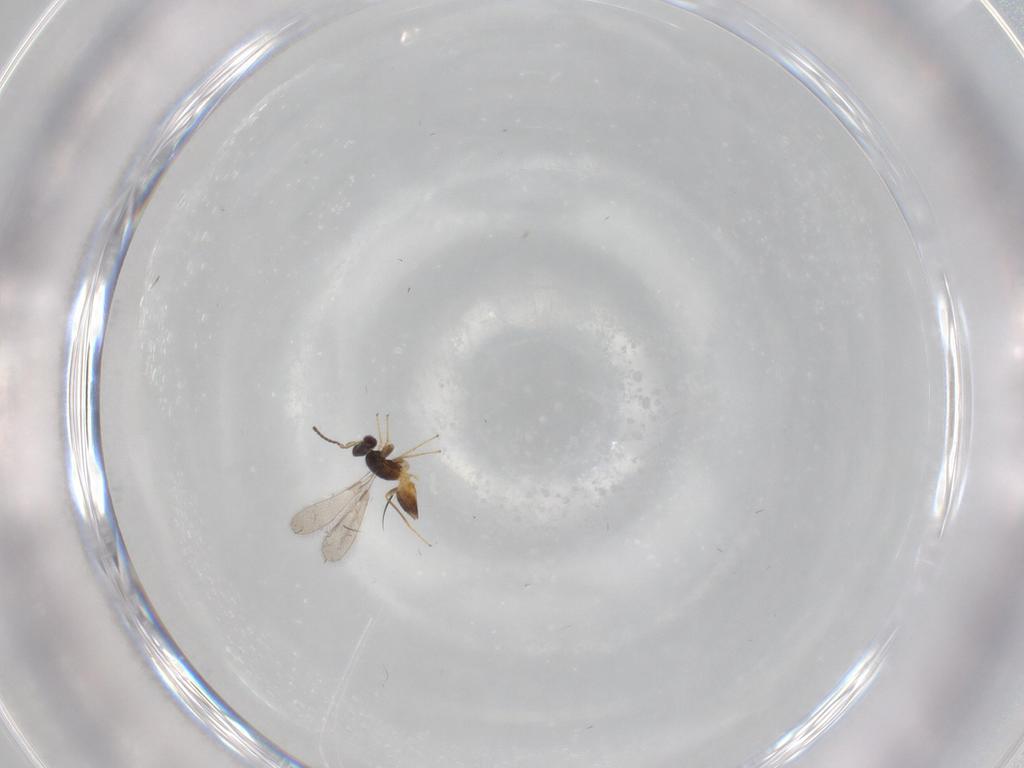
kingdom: Animalia
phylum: Arthropoda
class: Insecta
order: Hymenoptera
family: Mymaridae
